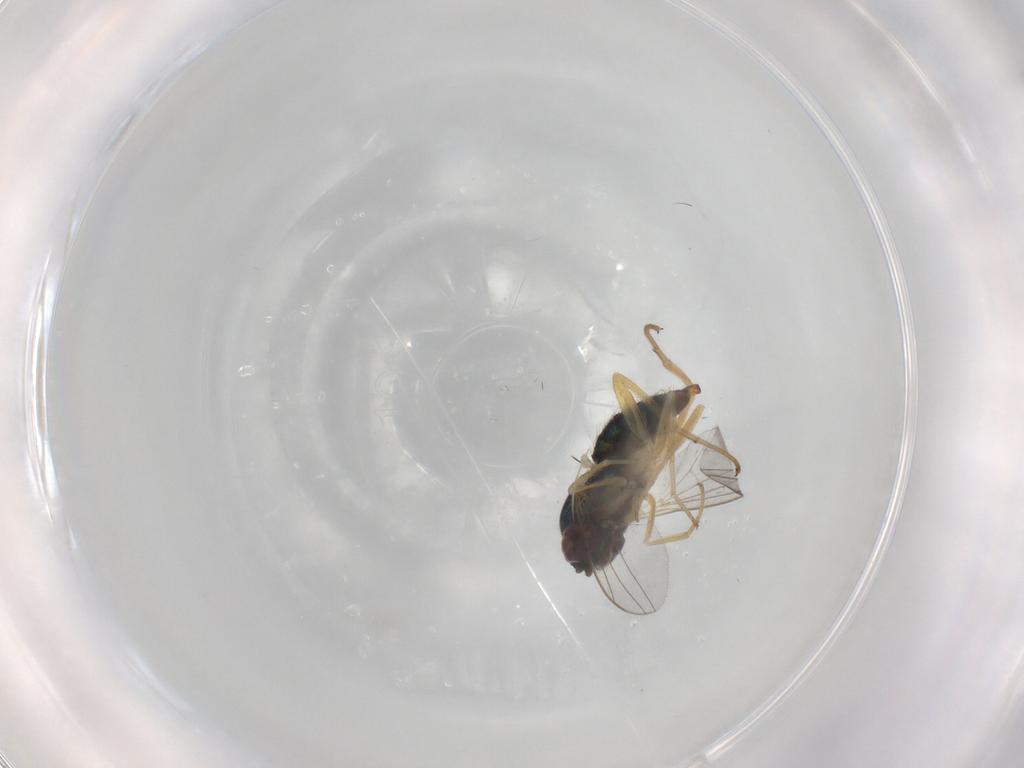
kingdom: Animalia
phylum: Arthropoda
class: Insecta
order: Diptera
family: Dolichopodidae
